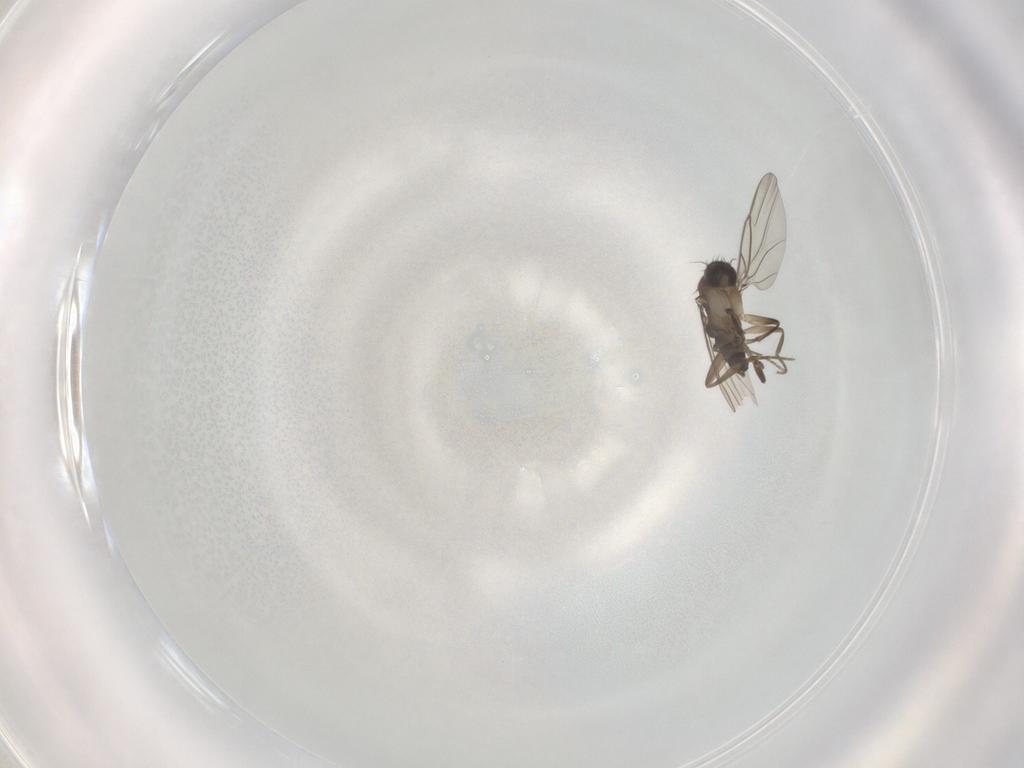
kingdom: Animalia
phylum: Arthropoda
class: Insecta
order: Diptera
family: Phoridae
